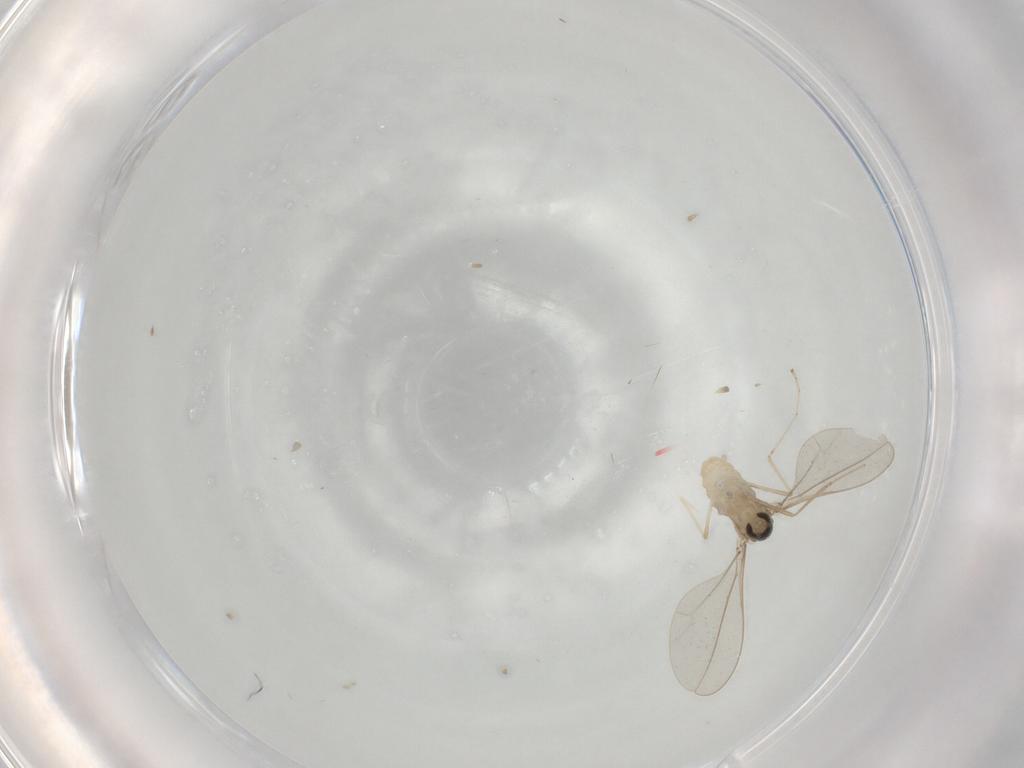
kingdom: Animalia
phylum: Arthropoda
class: Insecta
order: Diptera
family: Cecidomyiidae
